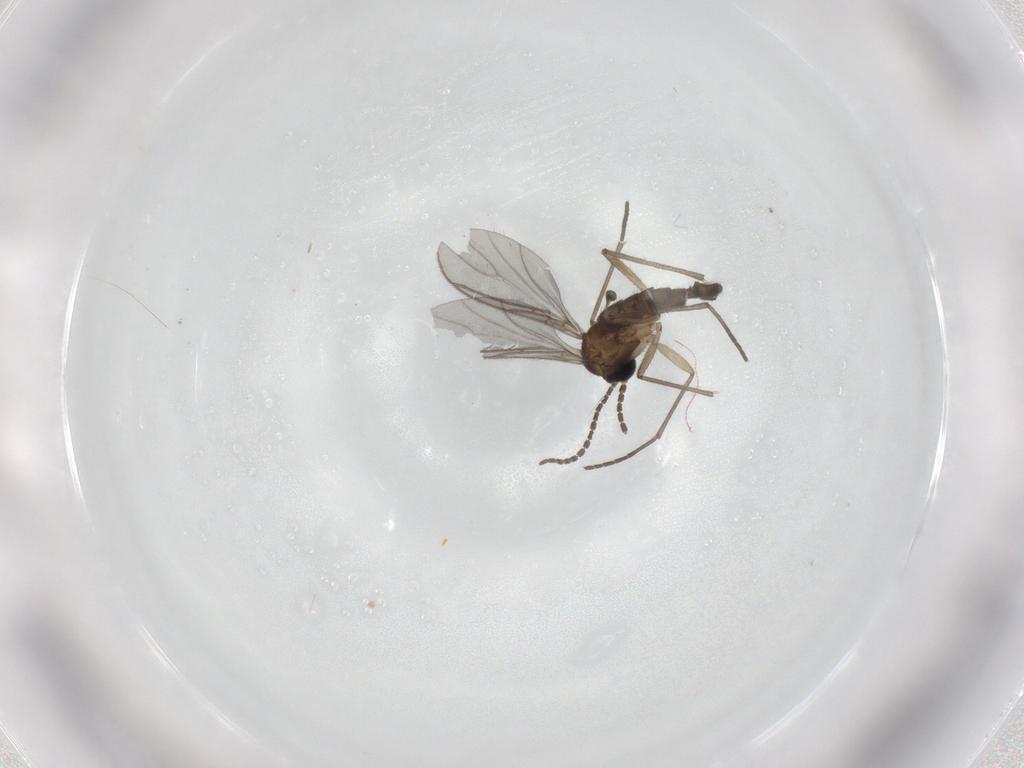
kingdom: Animalia
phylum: Arthropoda
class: Insecta
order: Diptera
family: Sciaridae
